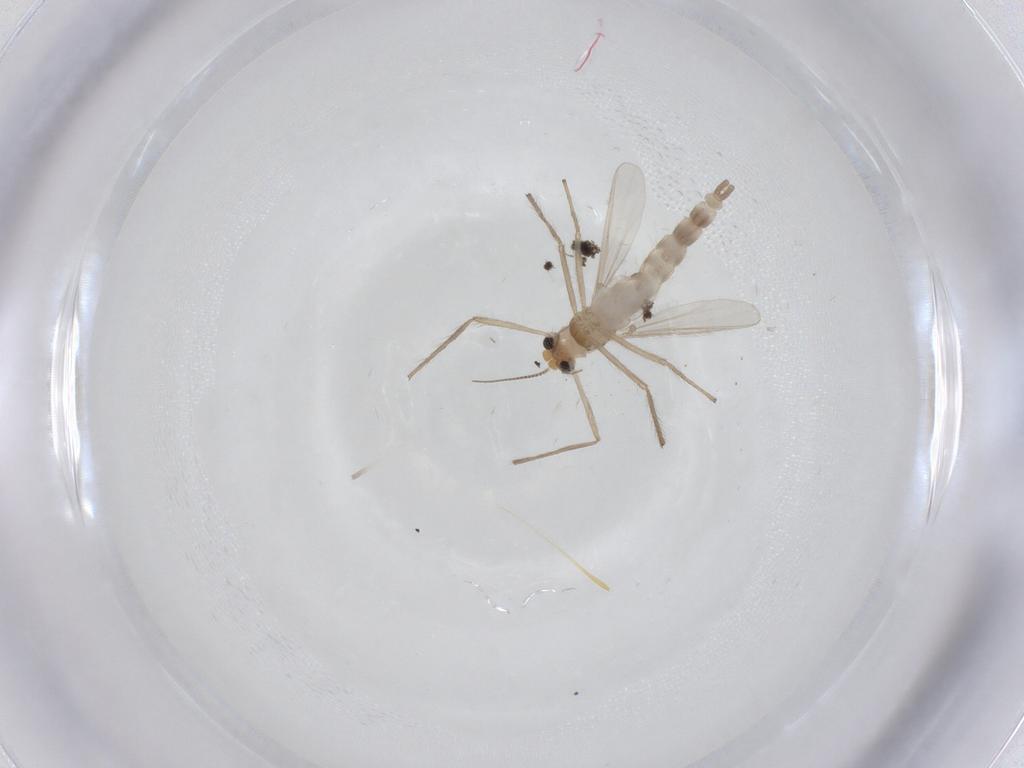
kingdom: Animalia
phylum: Arthropoda
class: Insecta
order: Diptera
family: Dolichopodidae
